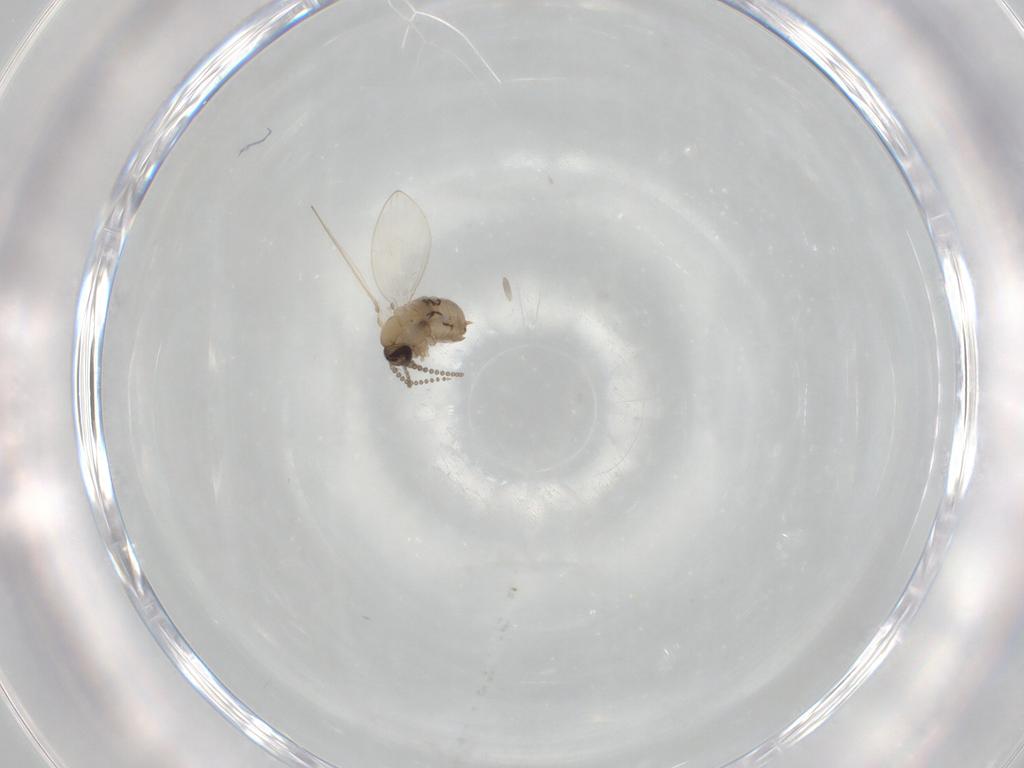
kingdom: Animalia
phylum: Arthropoda
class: Insecta
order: Diptera
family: Psychodidae
